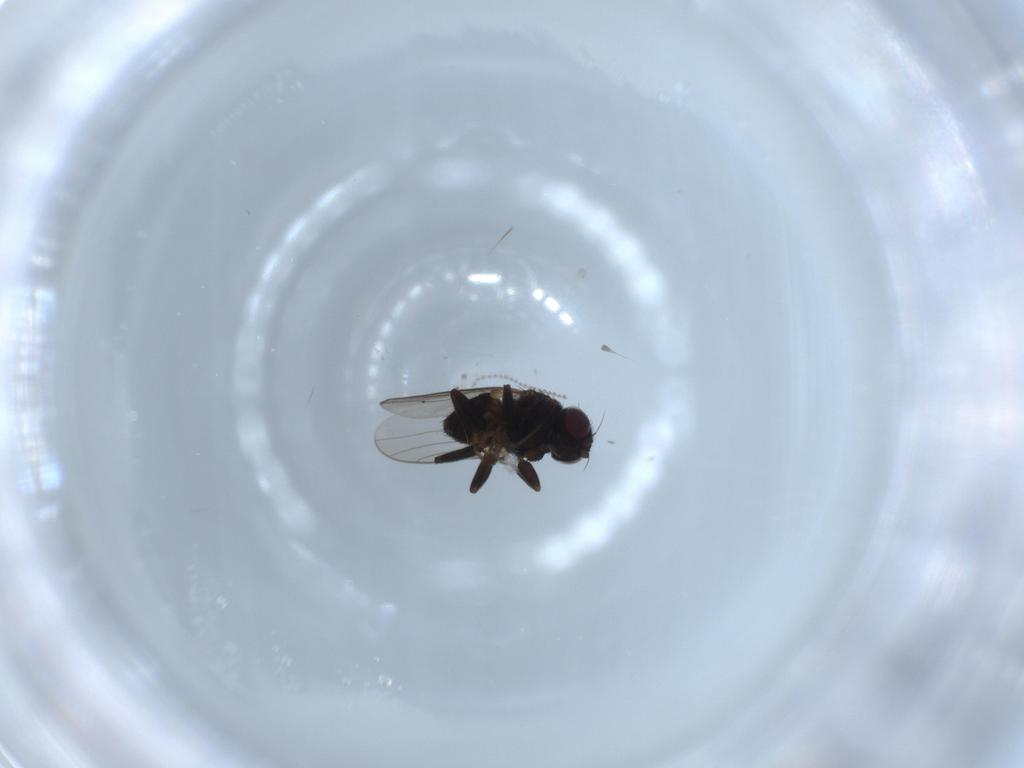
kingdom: Animalia
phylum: Arthropoda
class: Insecta
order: Diptera
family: Chloropidae
